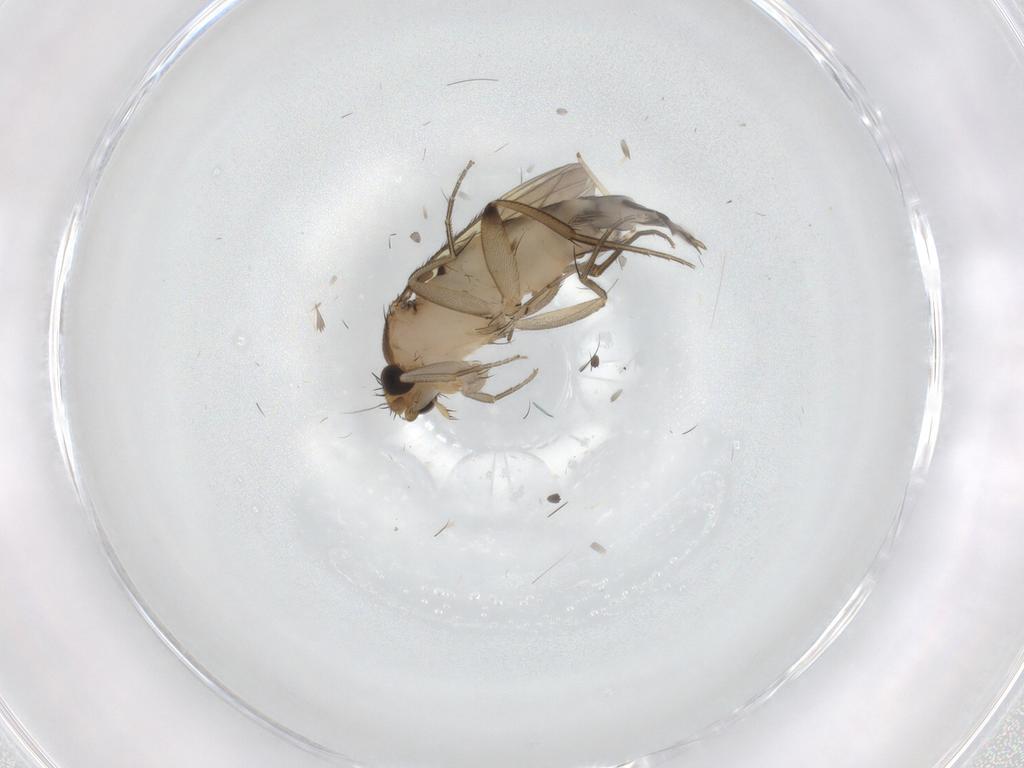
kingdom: Animalia
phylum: Arthropoda
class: Insecta
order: Diptera
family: Phoridae
